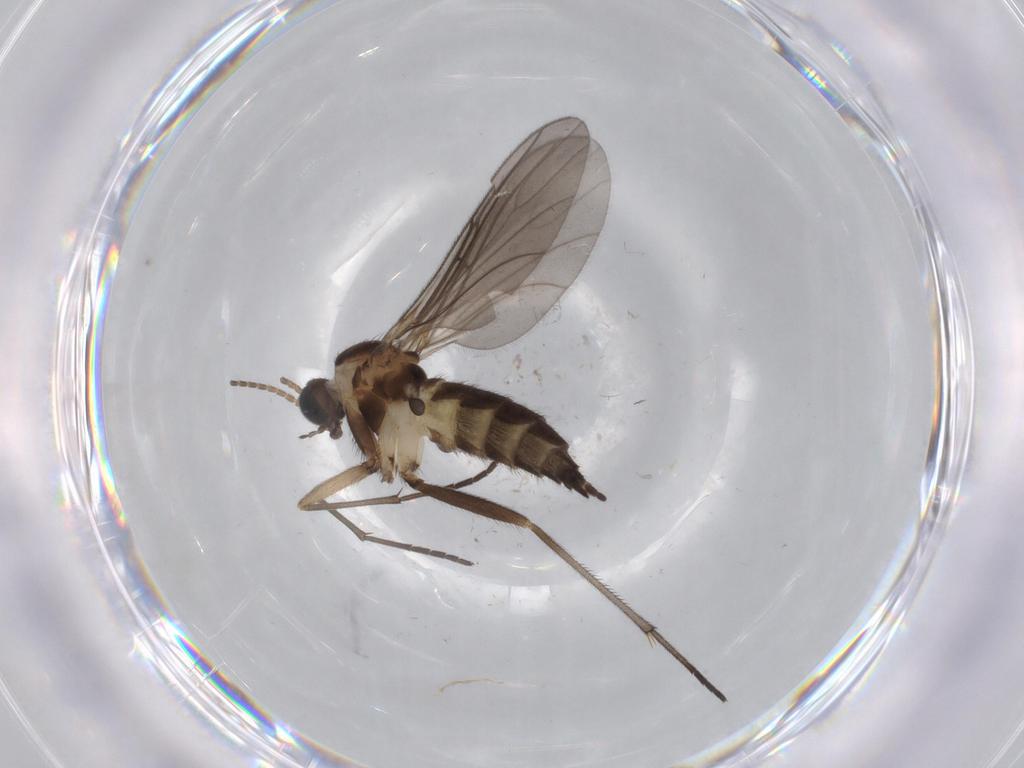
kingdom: Animalia
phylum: Arthropoda
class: Insecta
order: Diptera
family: Sciaridae
